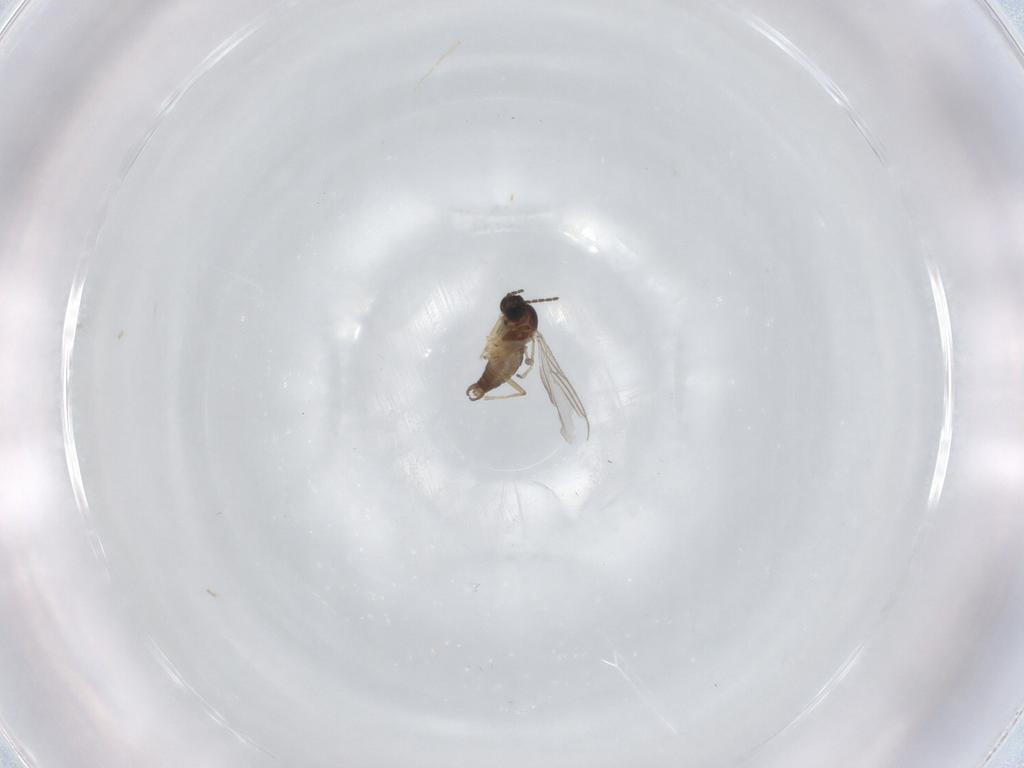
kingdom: Animalia
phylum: Arthropoda
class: Insecta
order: Diptera
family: Sciaridae
